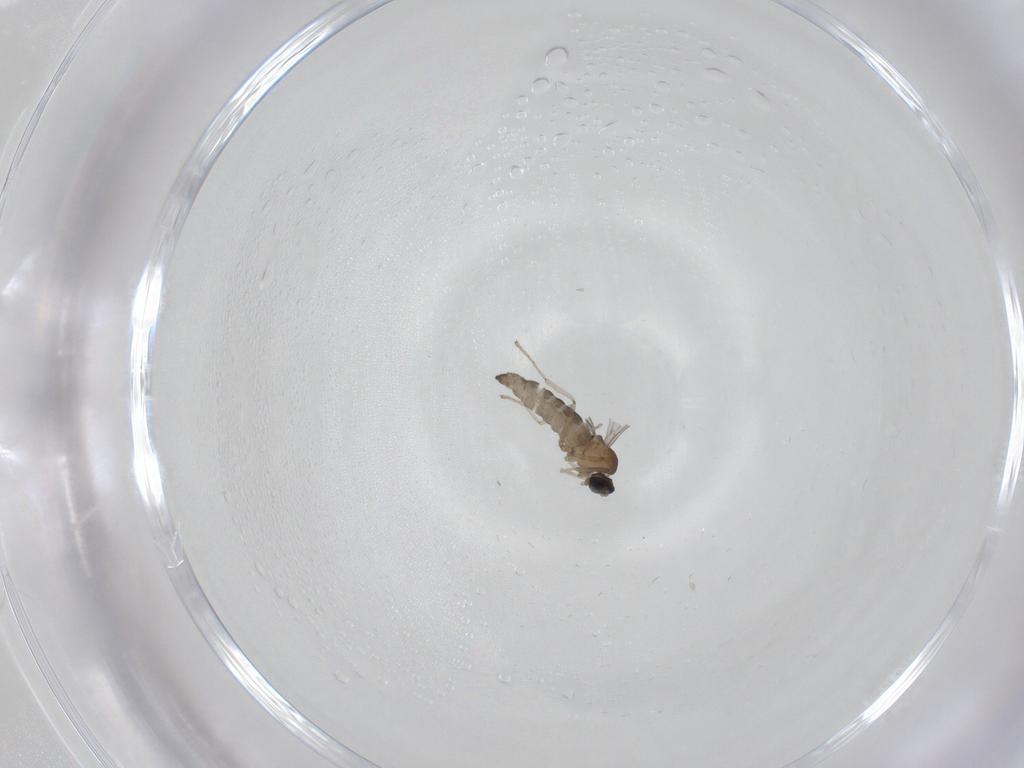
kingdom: Animalia
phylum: Arthropoda
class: Insecta
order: Diptera
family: Cecidomyiidae
